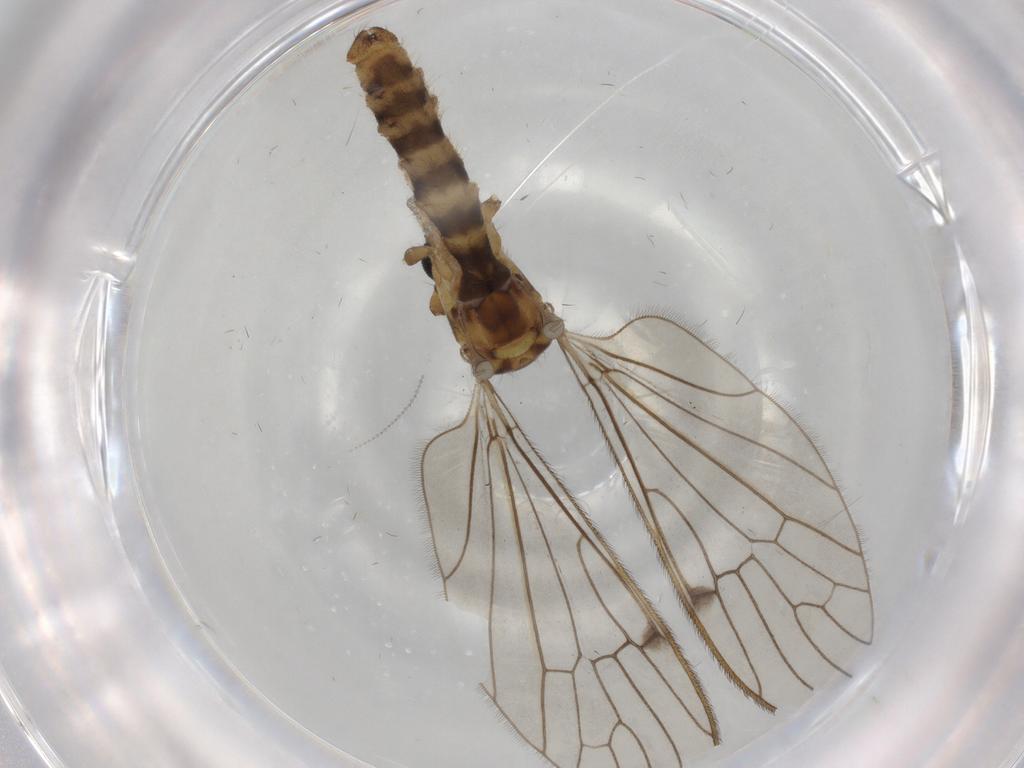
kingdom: Animalia
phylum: Arthropoda
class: Insecta
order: Diptera
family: Limoniidae
